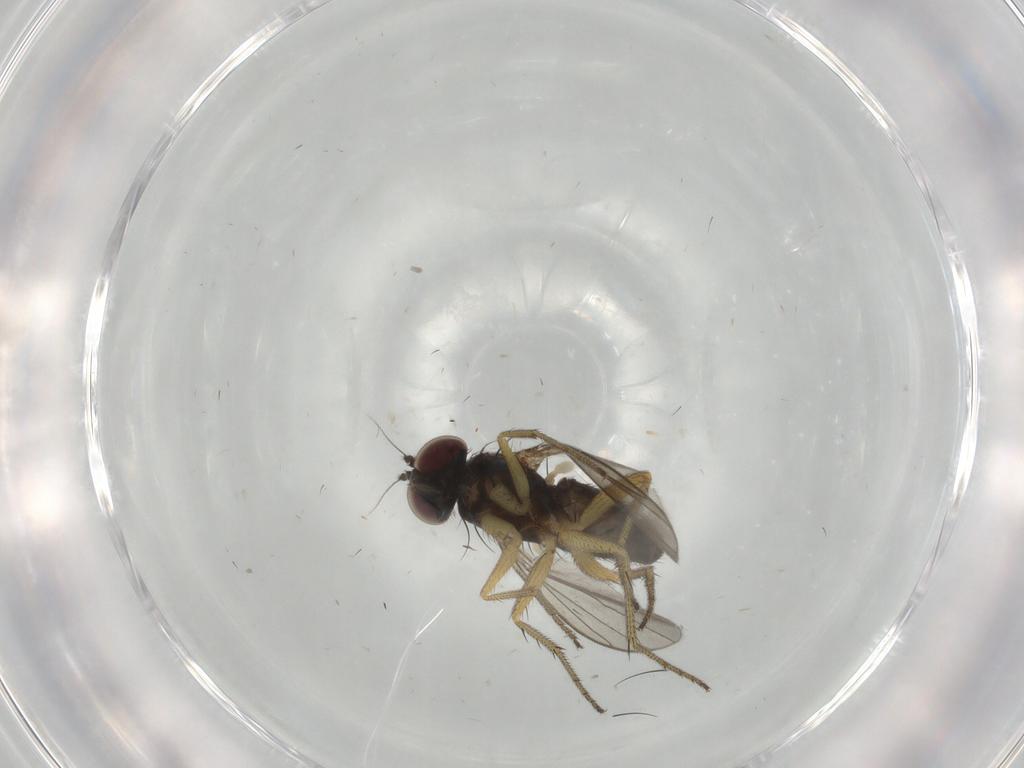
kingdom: Animalia
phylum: Arthropoda
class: Insecta
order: Diptera
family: Dolichopodidae
